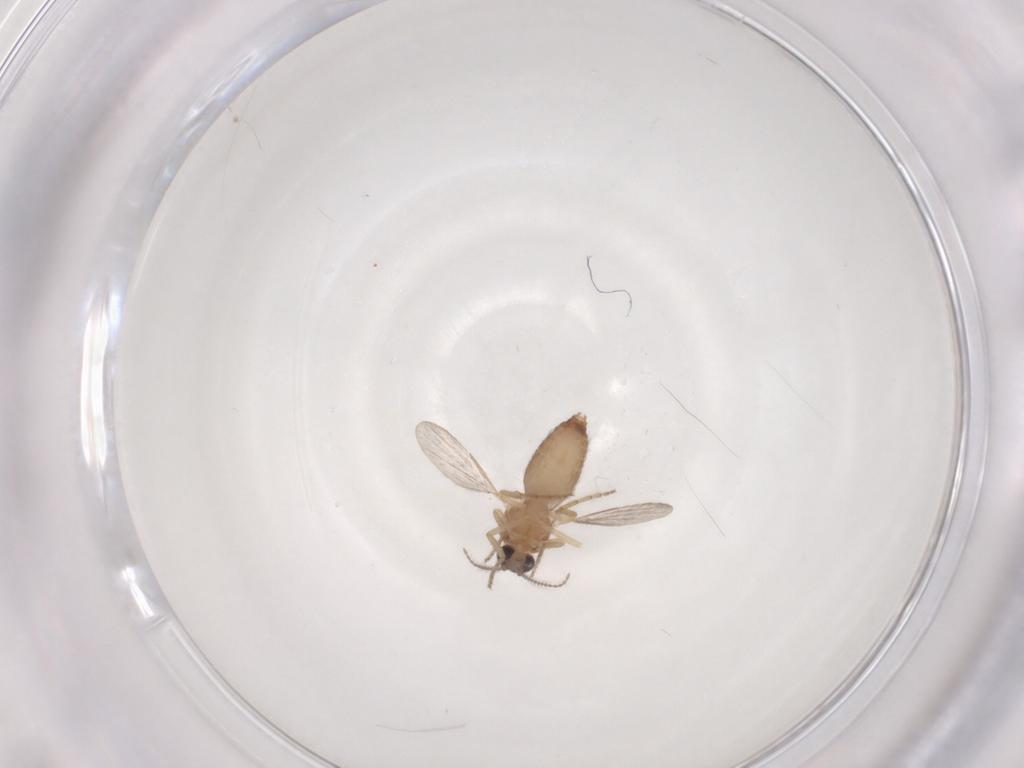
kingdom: Animalia
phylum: Arthropoda
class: Insecta
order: Diptera
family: Ceratopogonidae
